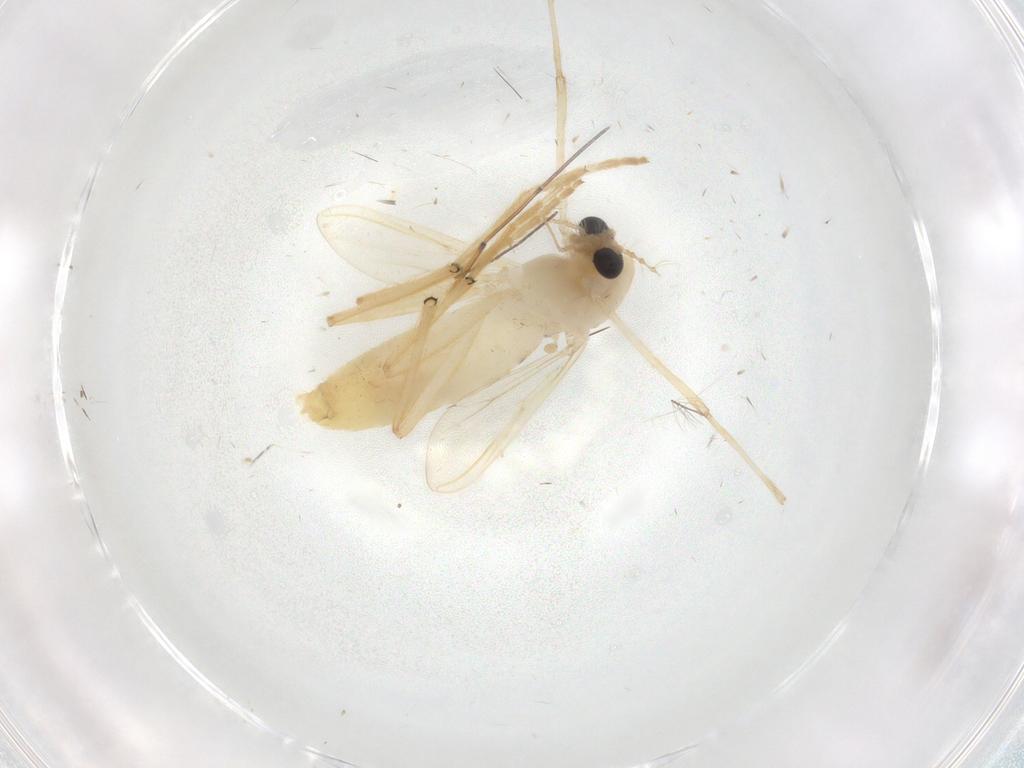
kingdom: Animalia
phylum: Arthropoda
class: Insecta
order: Diptera
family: Chironomidae
